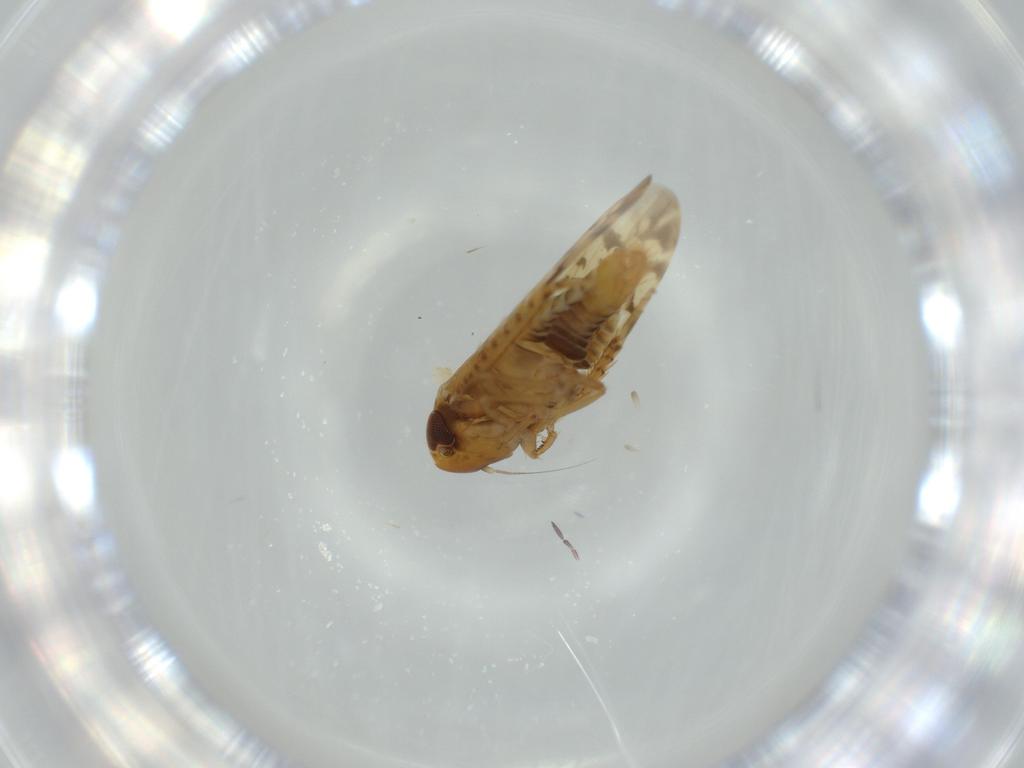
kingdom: Animalia
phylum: Arthropoda
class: Insecta
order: Hemiptera
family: Cicadellidae
